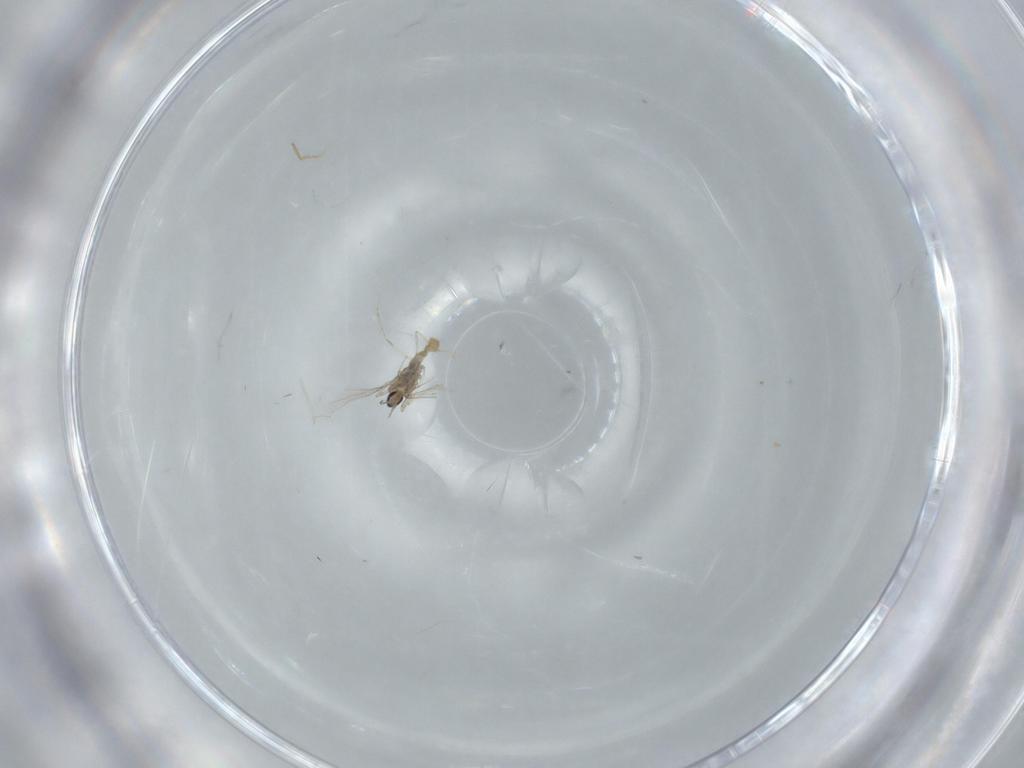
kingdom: Animalia
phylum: Arthropoda
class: Insecta
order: Diptera
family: Cecidomyiidae
